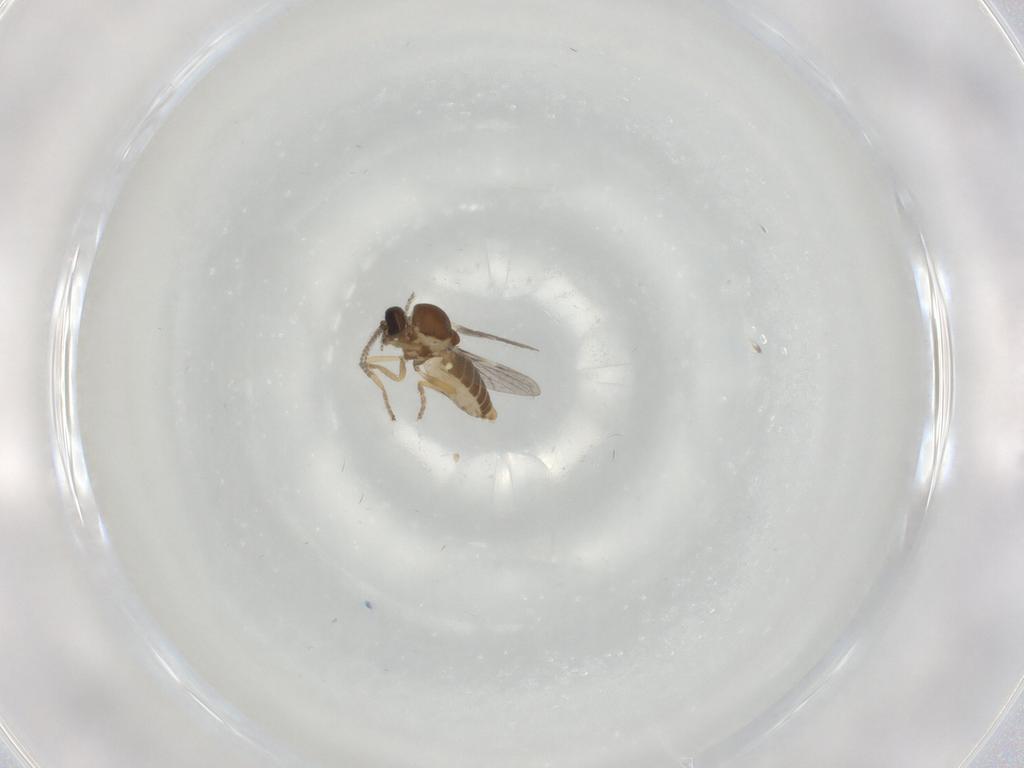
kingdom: Animalia
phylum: Arthropoda
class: Insecta
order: Diptera
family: Ceratopogonidae
